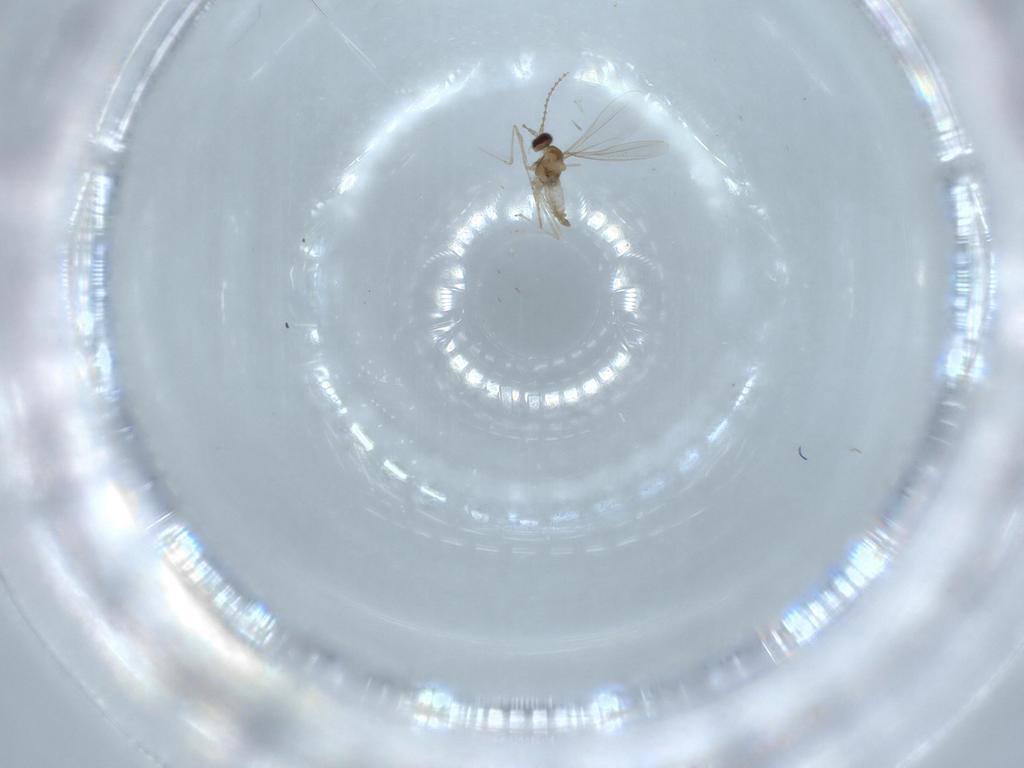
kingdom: Animalia
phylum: Arthropoda
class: Insecta
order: Diptera
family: Cecidomyiidae
